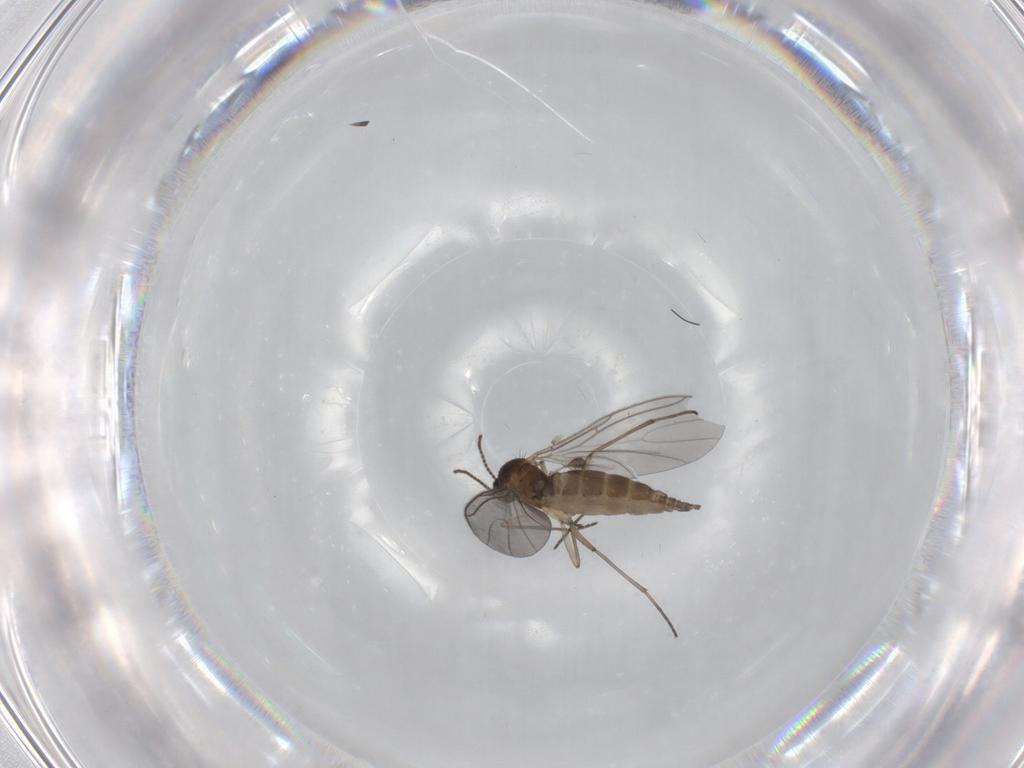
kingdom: Animalia
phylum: Arthropoda
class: Insecta
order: Diptera
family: Sciaridae
